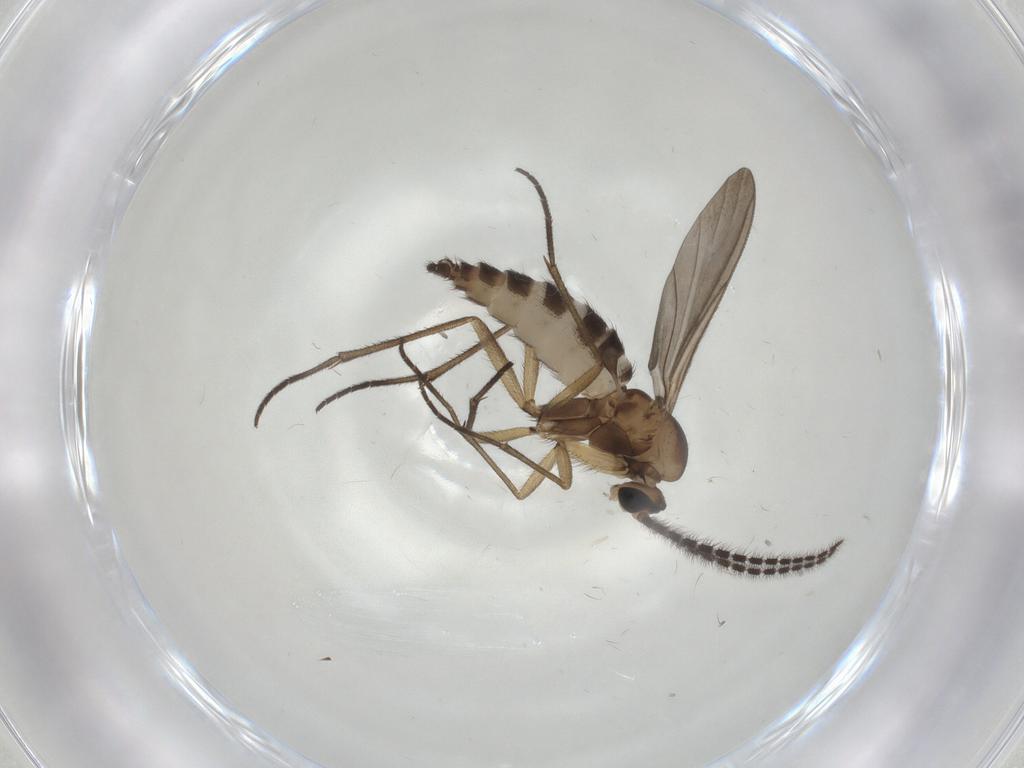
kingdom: Animalia
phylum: Arthropoda
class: Insecta
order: Diptera
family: Sciaridae
